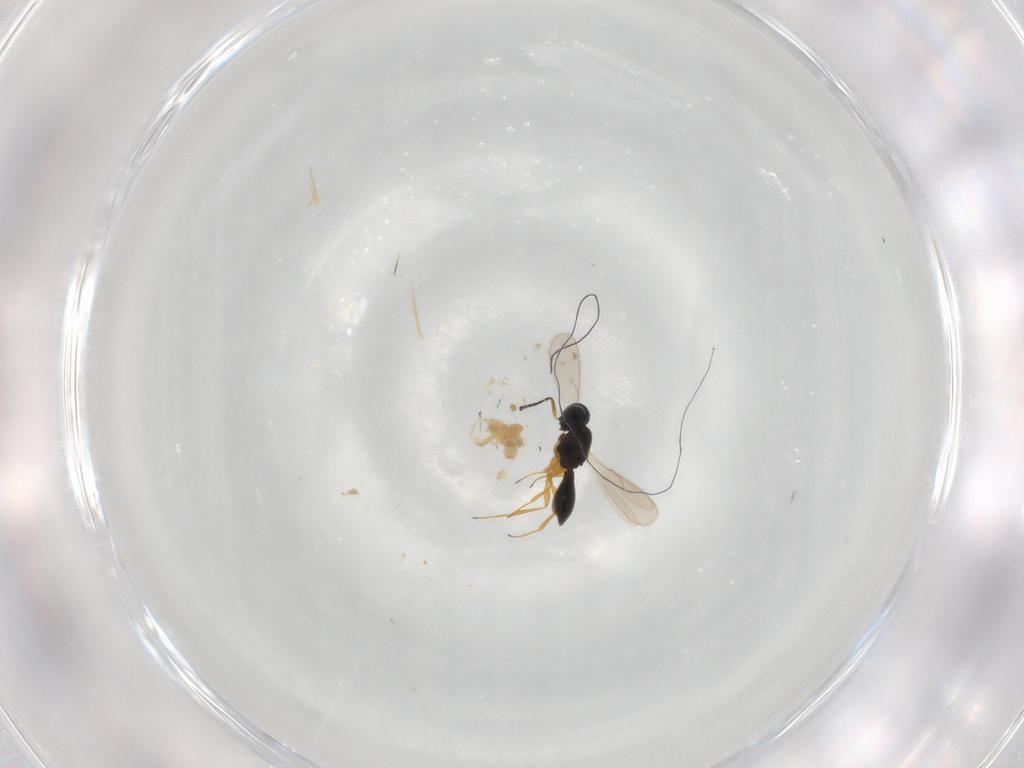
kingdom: Animalia
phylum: Arthropoda
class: Insecta
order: Hymenoptera
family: Scelionidae
